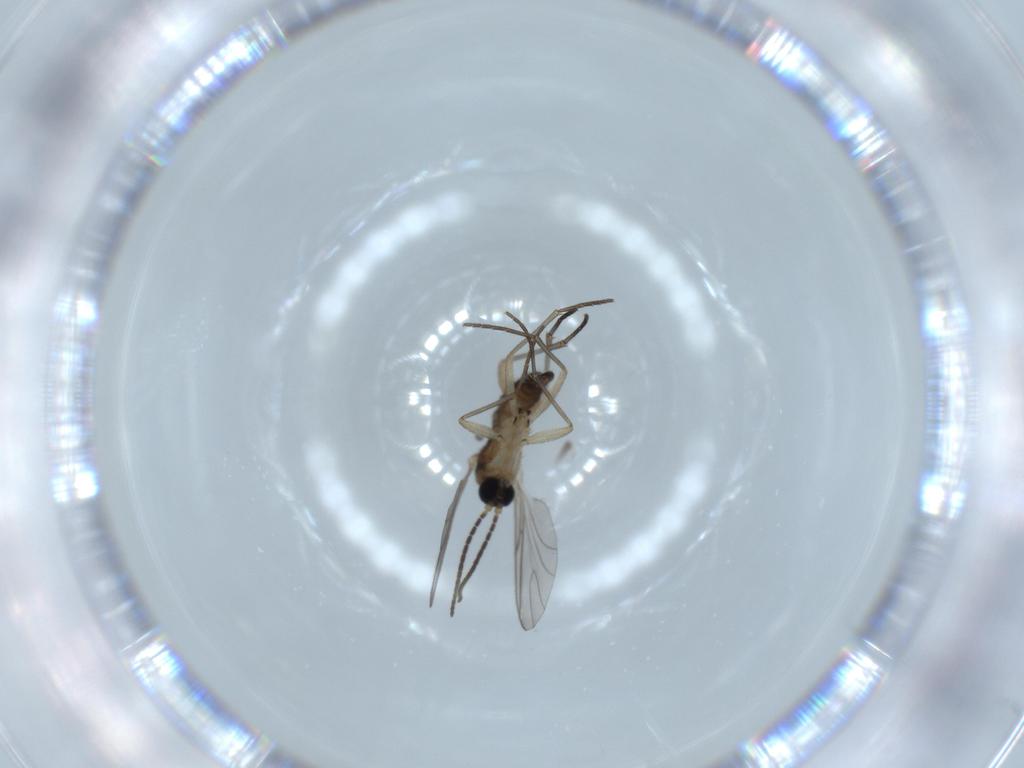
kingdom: Animalia
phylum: Arthropoda
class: Insecta
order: Diptera
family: Sciaridae
